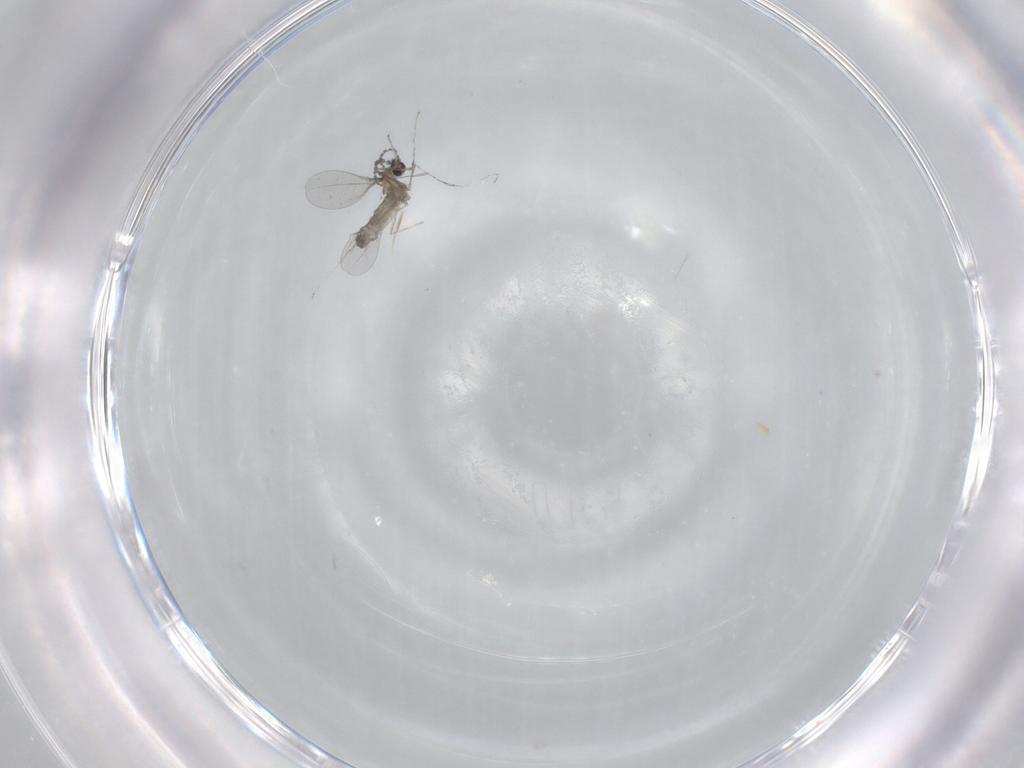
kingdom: Animalia
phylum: Arthropoda
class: Insecta
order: Diptera
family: Cecidomyiidae
